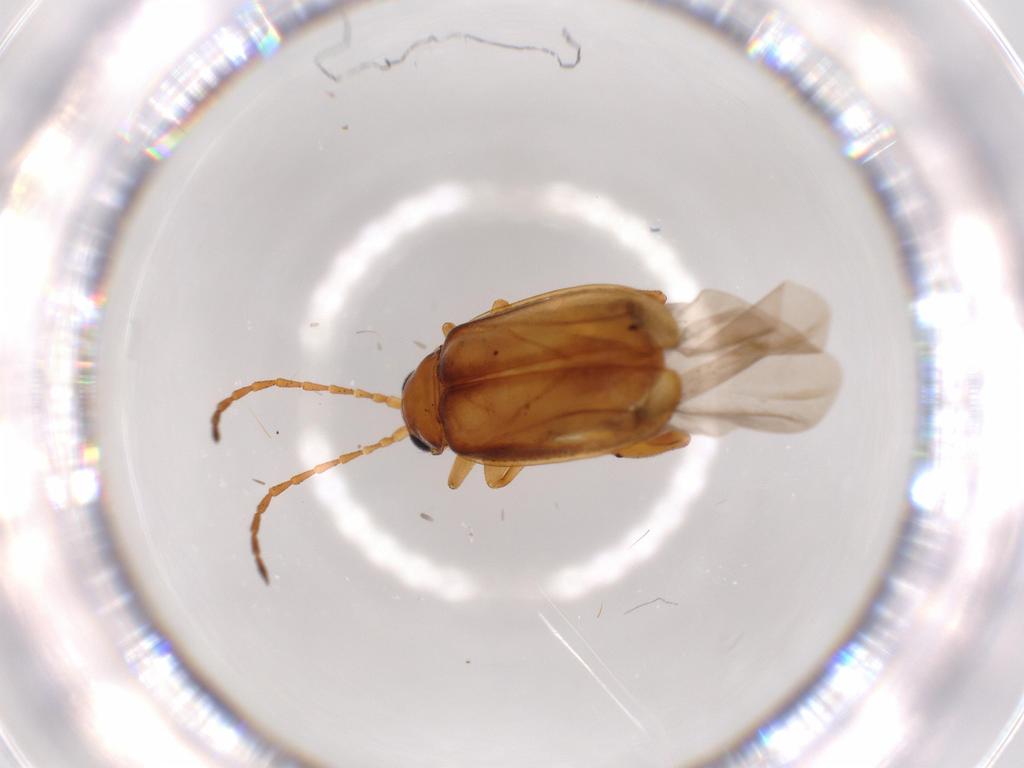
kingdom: Animalia
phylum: Arthropoda
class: Insecta
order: Coleoptera
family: Chrysomelidae
